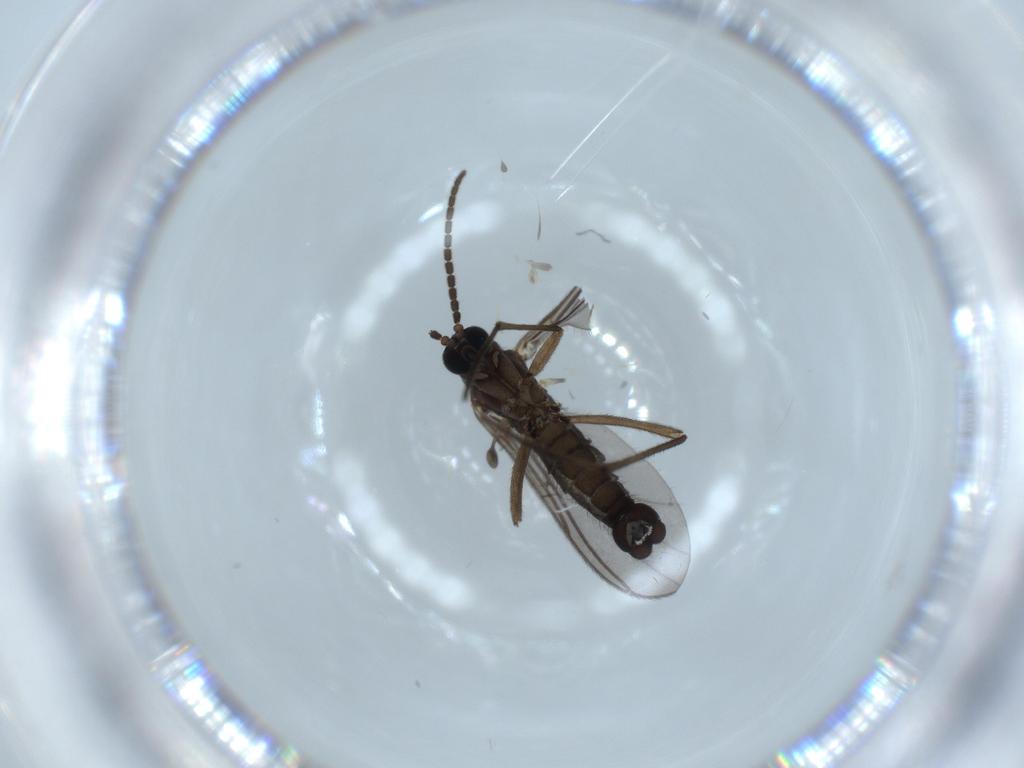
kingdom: Animalia
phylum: Arthropoda
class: Insecta
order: Diptera
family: Sciaridae
